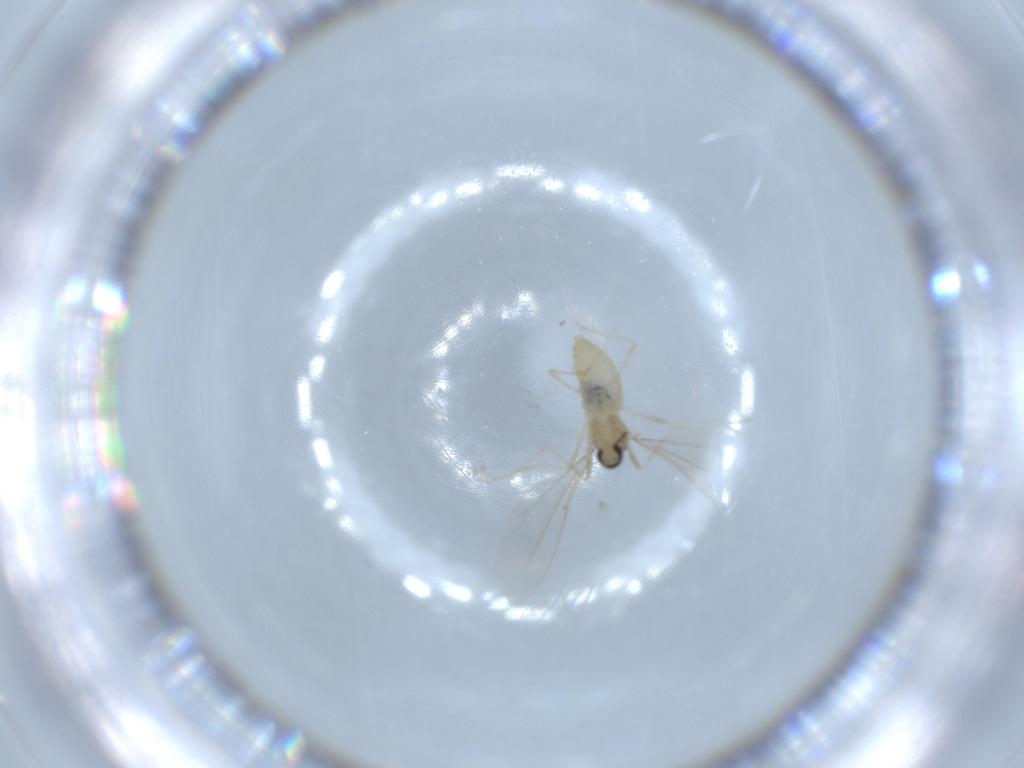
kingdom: Animalia
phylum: Arthropoda
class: Insecta
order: Diptera
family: Cecidomyiidae
